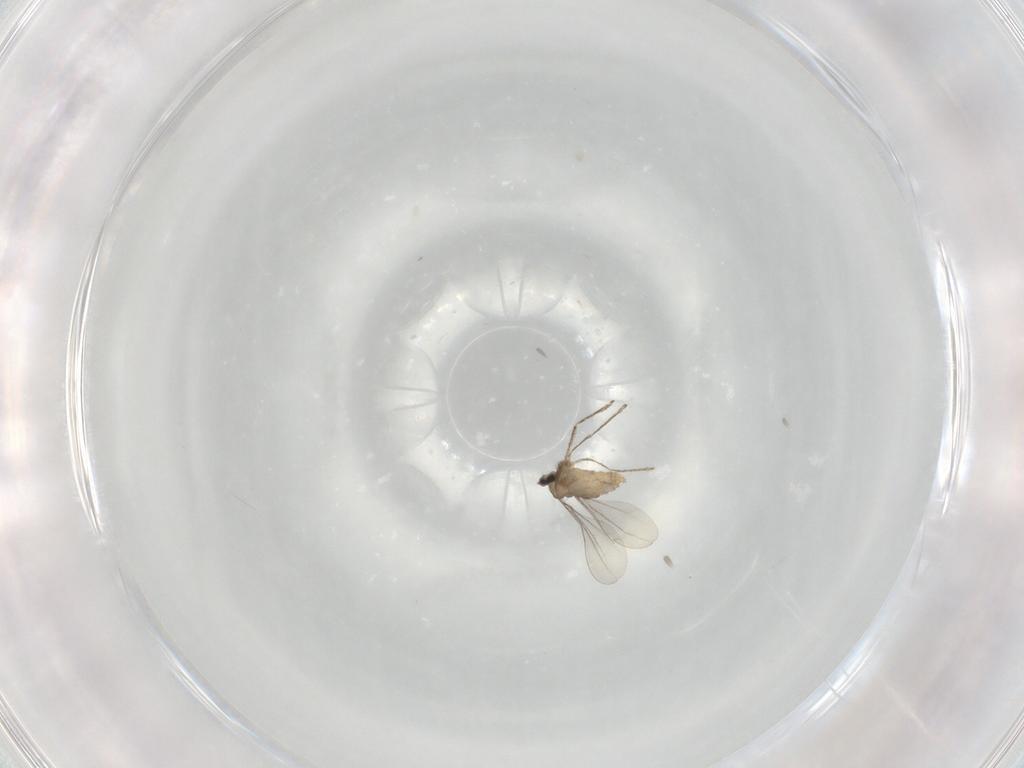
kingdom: Animalia
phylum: Arthropoda
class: Insecta
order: Diptera
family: Cecidomyiidae
